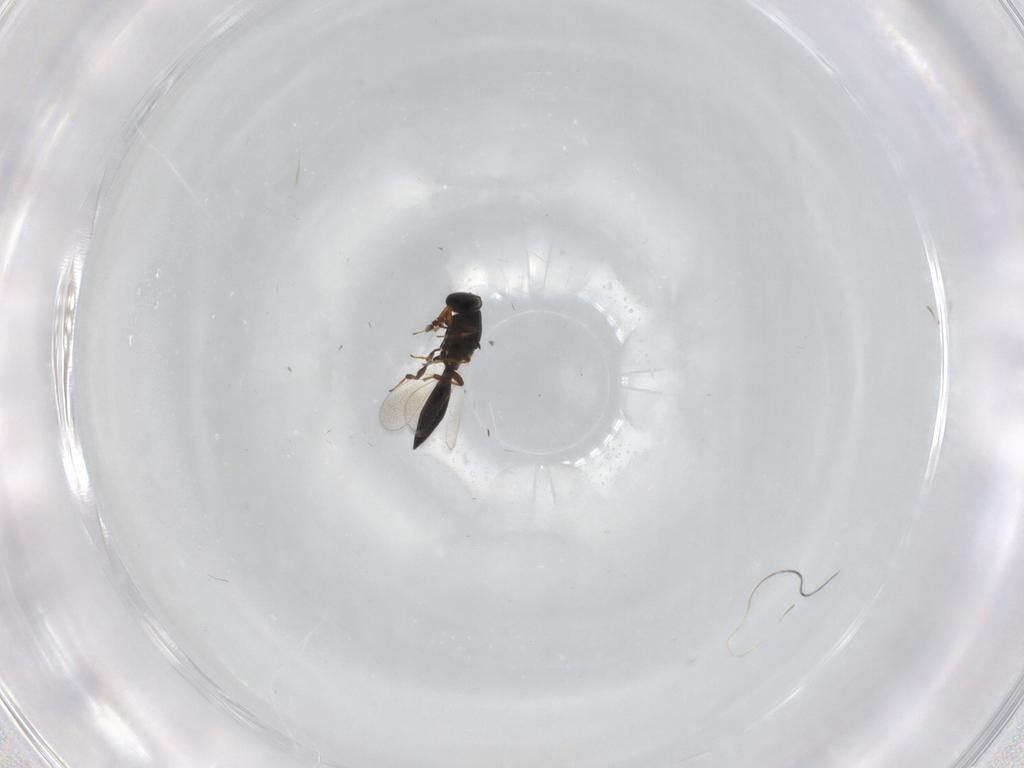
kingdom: Animalia
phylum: Arthropoda
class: Insecta
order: Hymenoptera
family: Platygastridae
